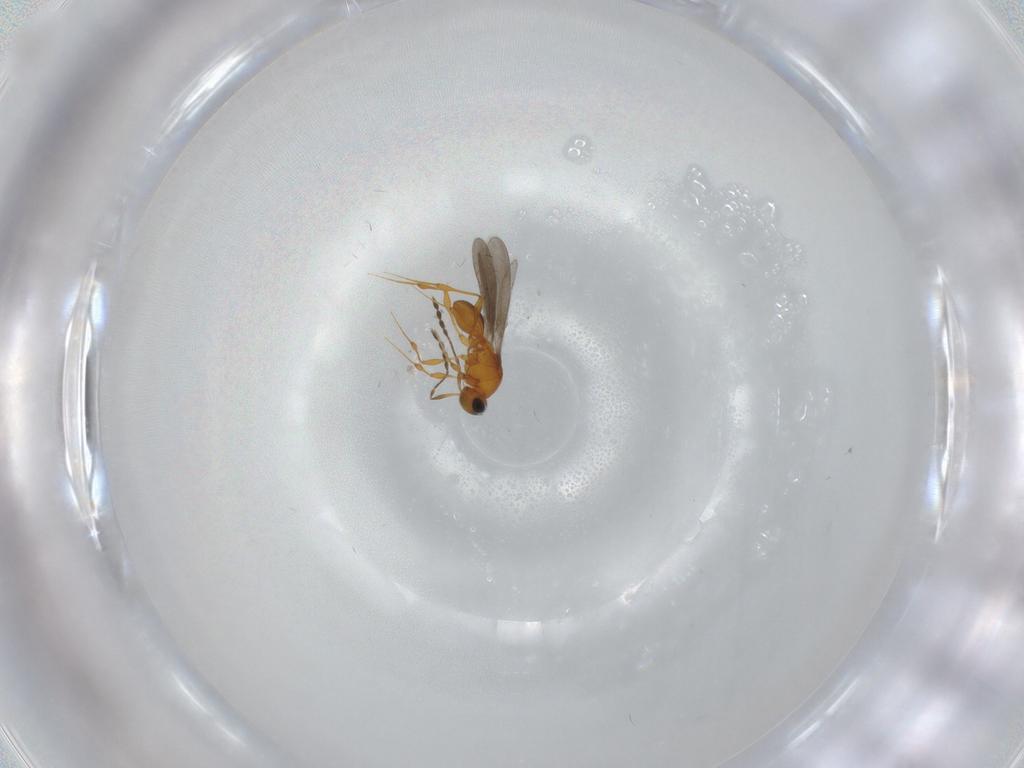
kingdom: Animalia
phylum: Arthropoda
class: Insecta
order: Hymenoptera
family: Platygastridae
